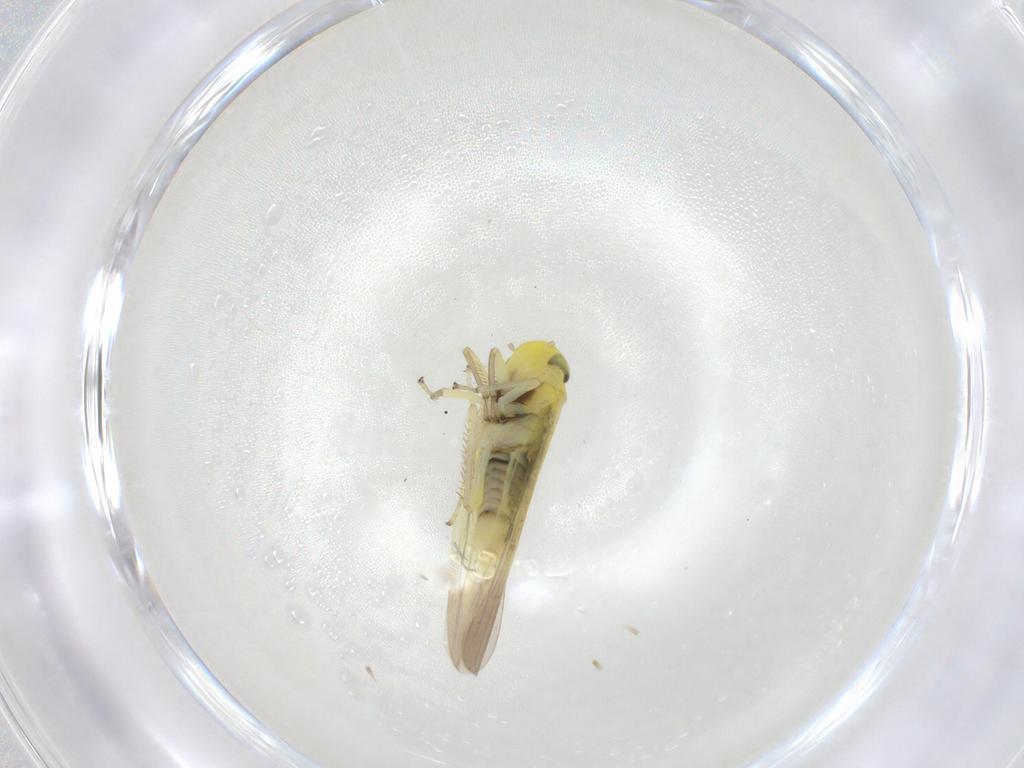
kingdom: Animalia
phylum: Arthropoda
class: Insecta
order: Hemiptera
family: Cicadellidae
